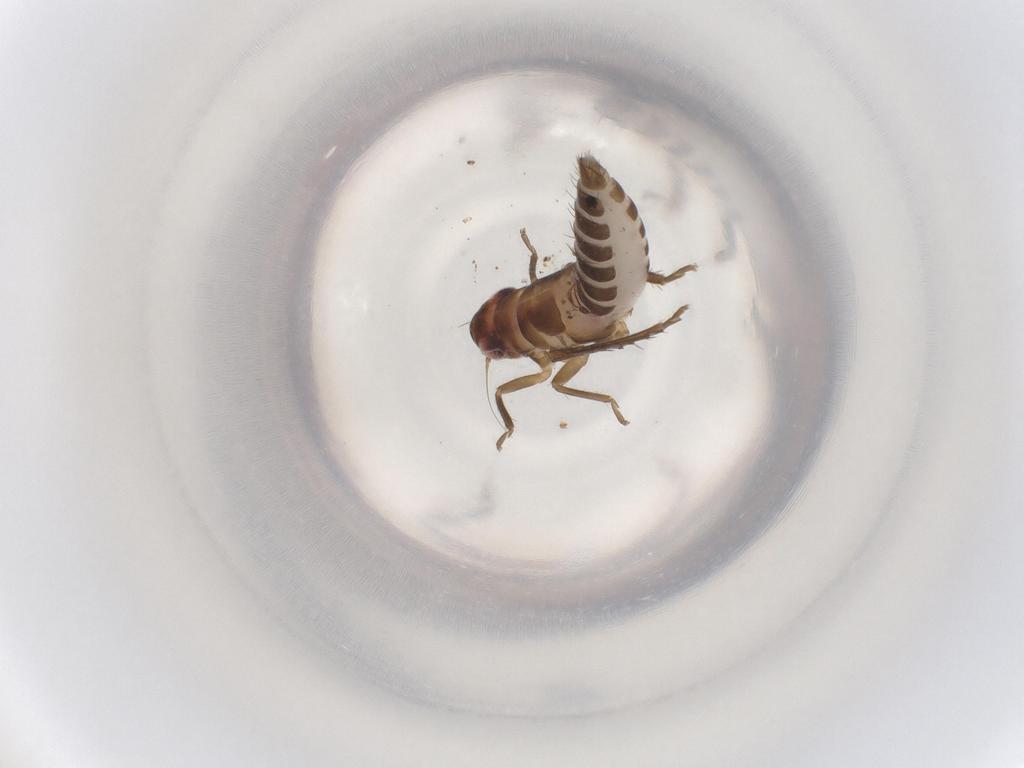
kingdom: Animalia
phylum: Arthropoda
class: Insecta
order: Hemiptera
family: Cicadellidae
